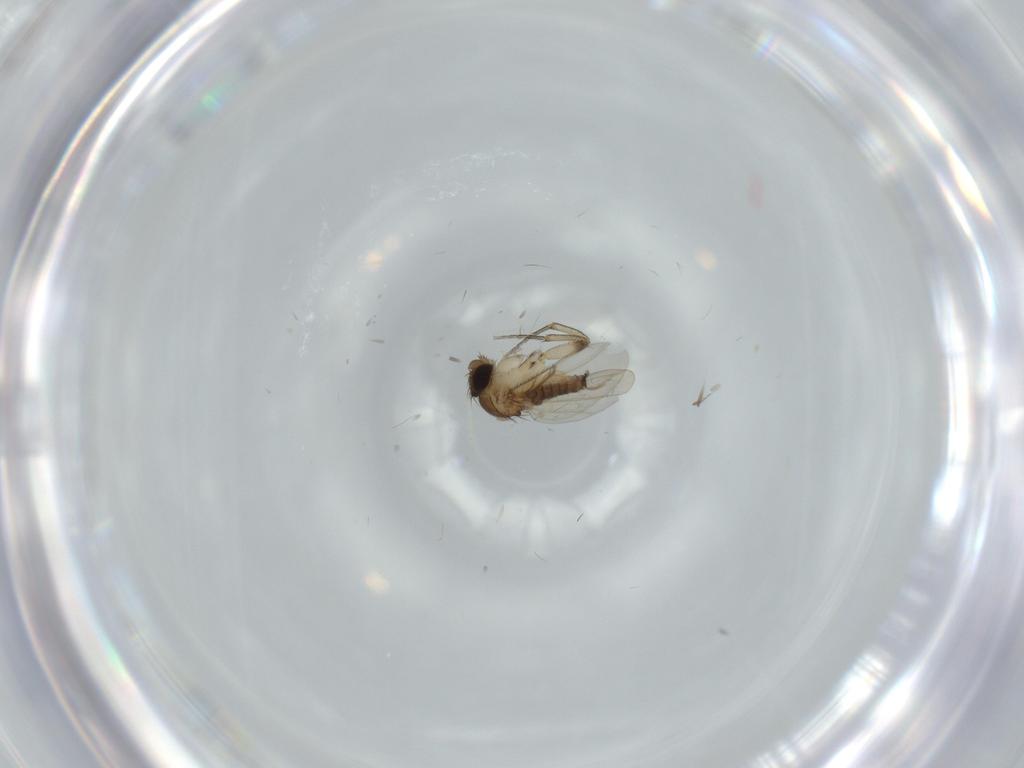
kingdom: Animalia
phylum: Arthropoda
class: Insecta
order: Diptera
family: Phoridae
